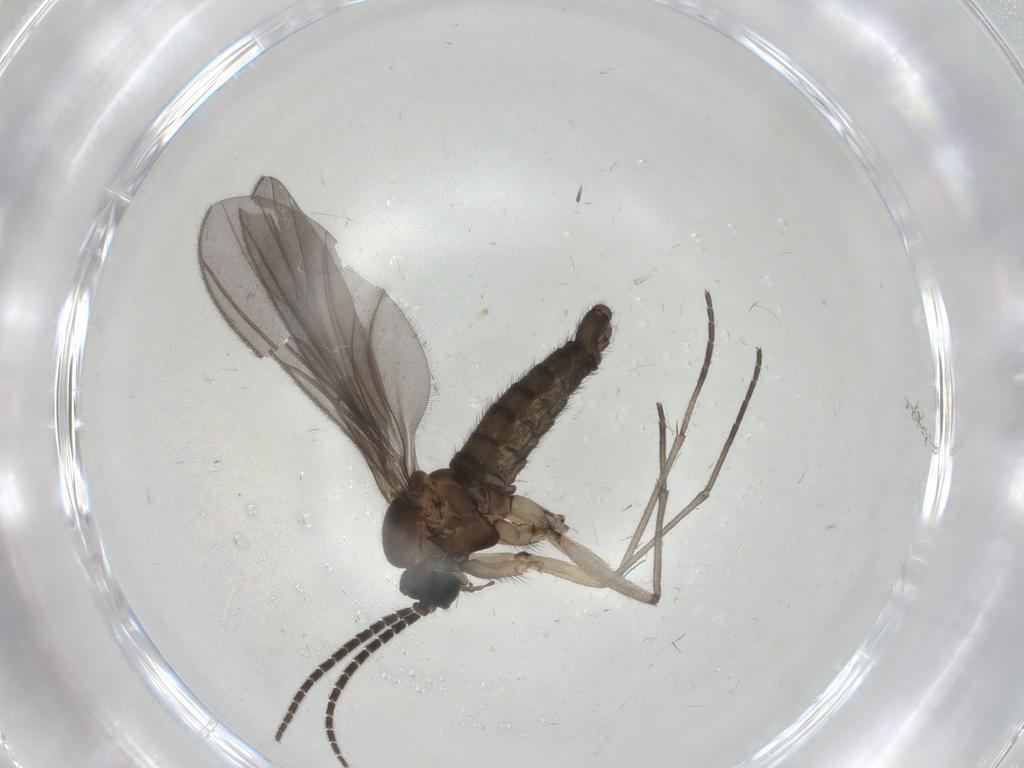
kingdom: Animalia
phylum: Arthropoda
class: Insecta
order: Diptera
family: Sciaridae
